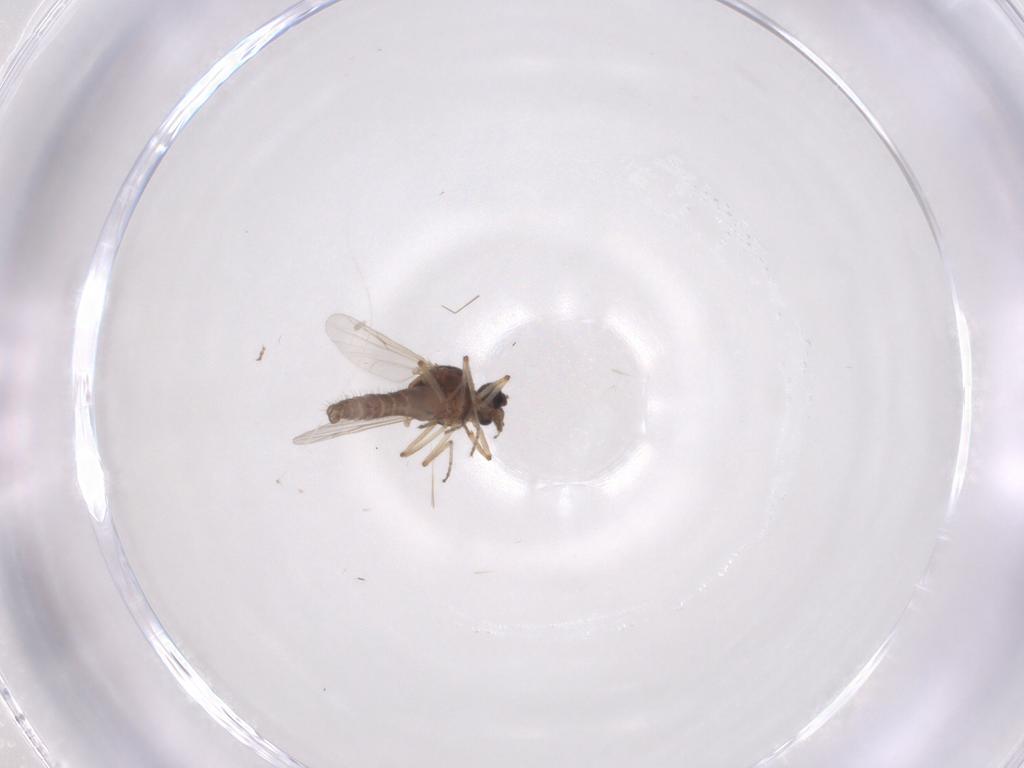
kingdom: Animalia
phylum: Arthropoda
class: Insecta
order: Diptera
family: Ceratopogonidae
